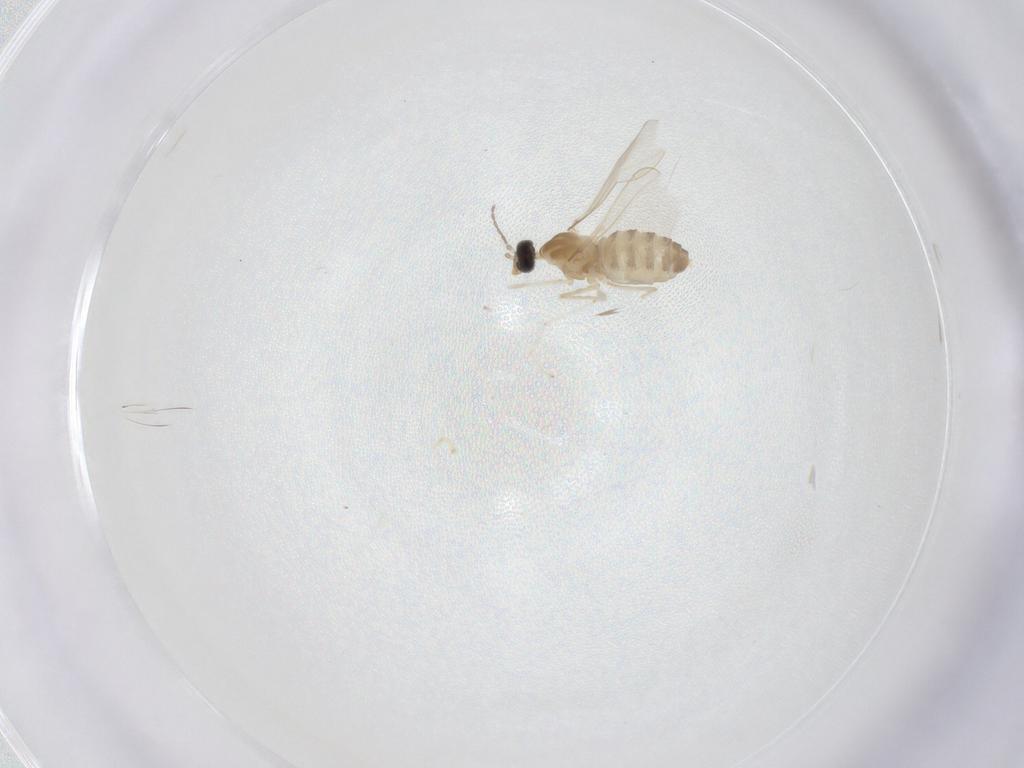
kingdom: Animalia
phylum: Arthropoda
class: Insecta
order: Diptera
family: Cecidomyiidae
